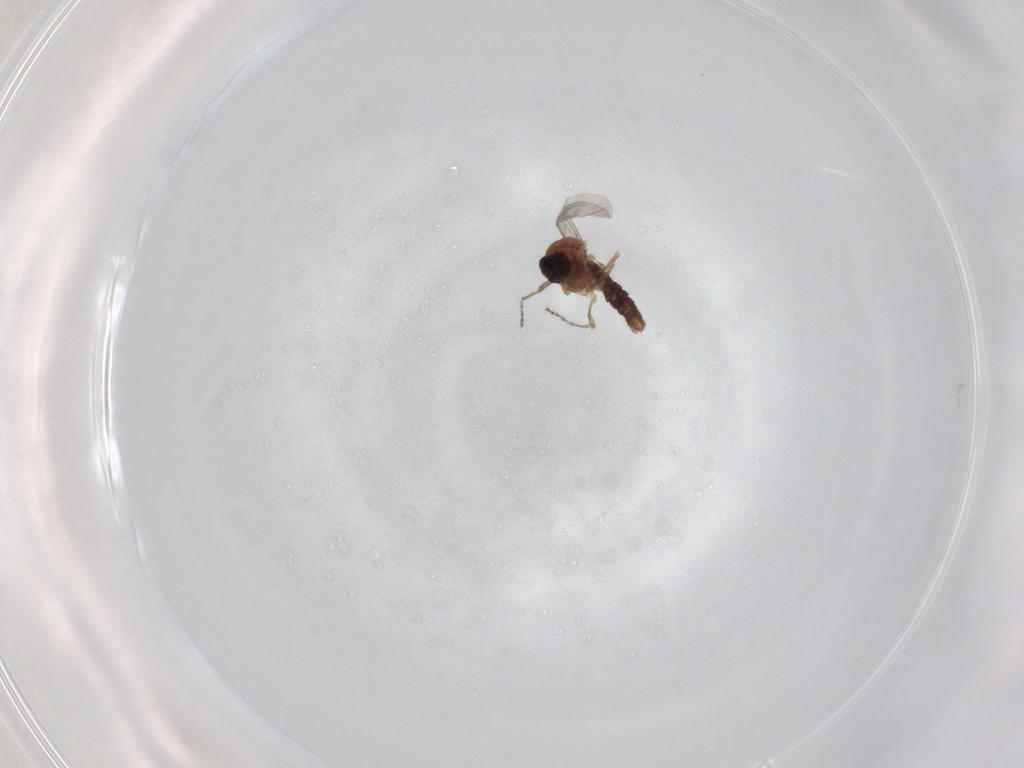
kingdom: Animalia
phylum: Arthropoda
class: Insecta
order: Diptera
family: Ceratopogonidae
